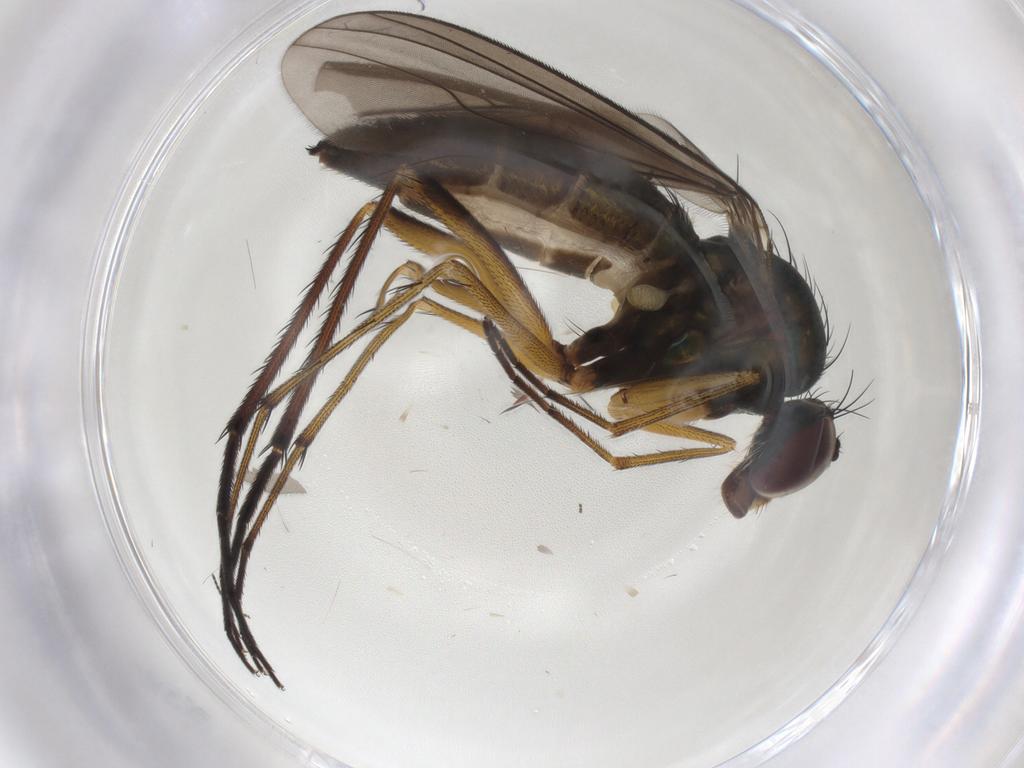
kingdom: Animalia
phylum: Arthropoda
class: Insecta
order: Diptera
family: Dolichopodidae
